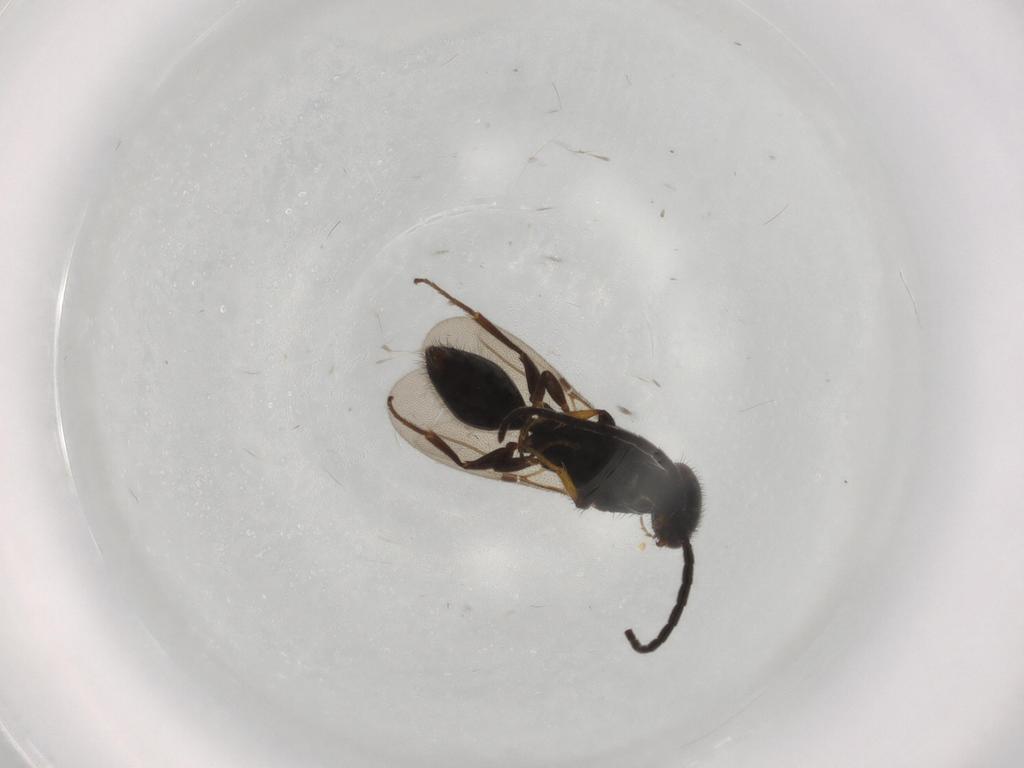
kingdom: Animalia
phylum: Arthropoda
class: Insecta
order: Hymenoptera
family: Bethylidae
